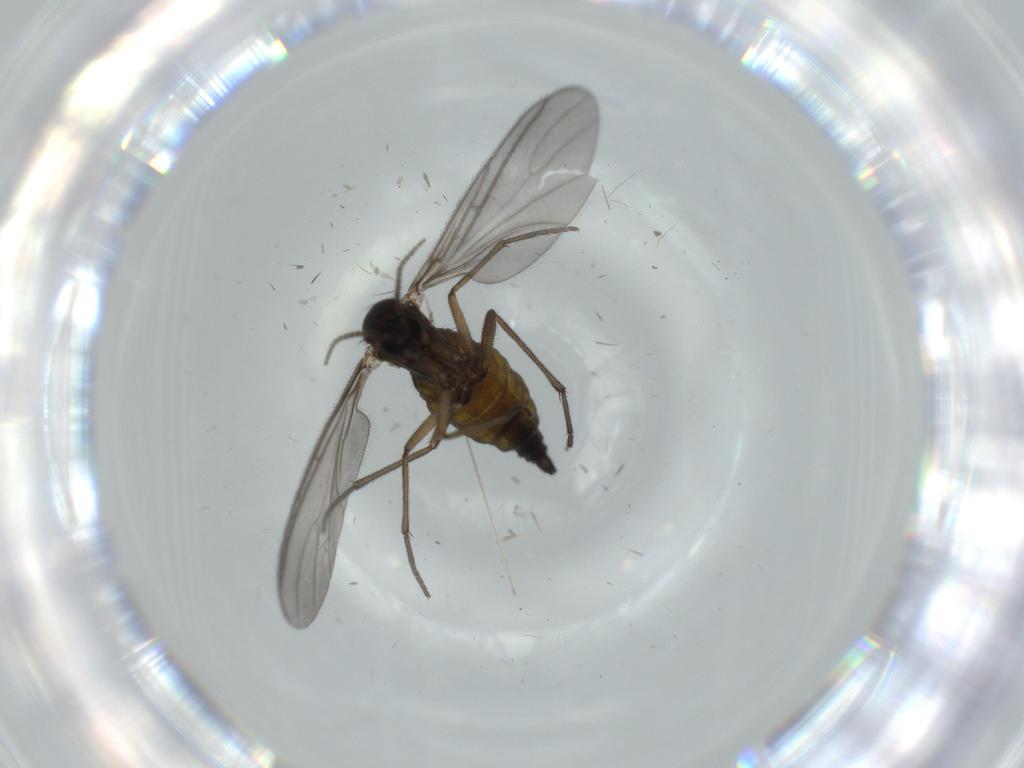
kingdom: Animalia
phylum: Arthropoda
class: Insecta
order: Diptera
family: Sciaridae
